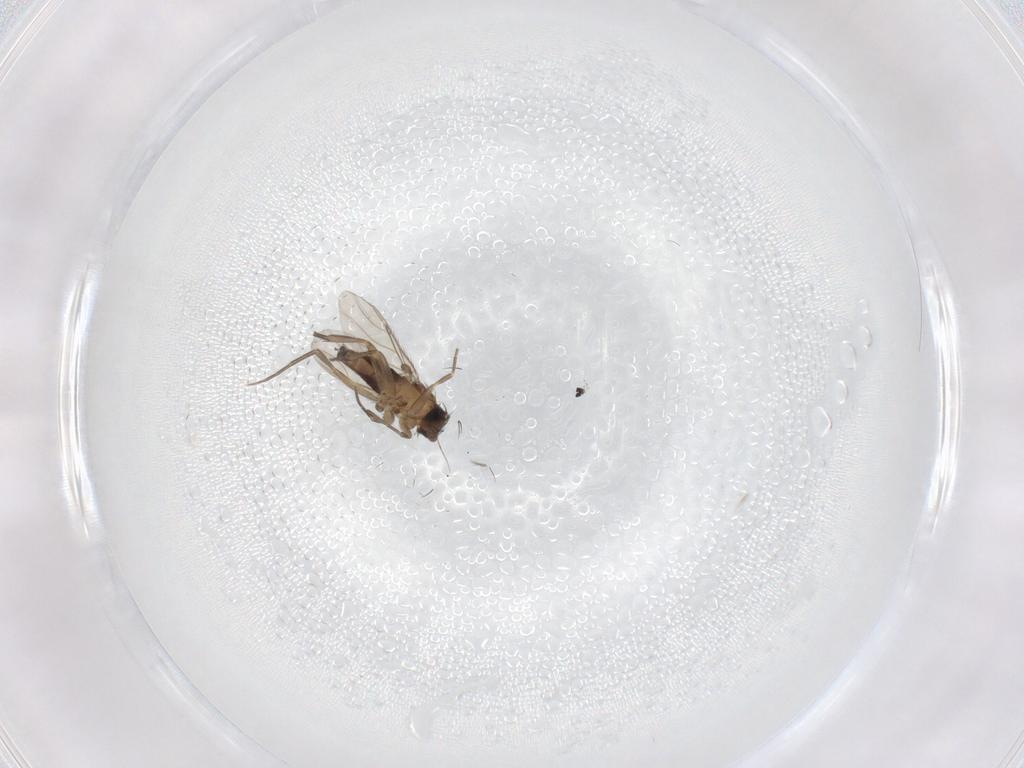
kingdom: Animalia
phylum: Arthropoda
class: Insecta
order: Diptera
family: Phoridae
